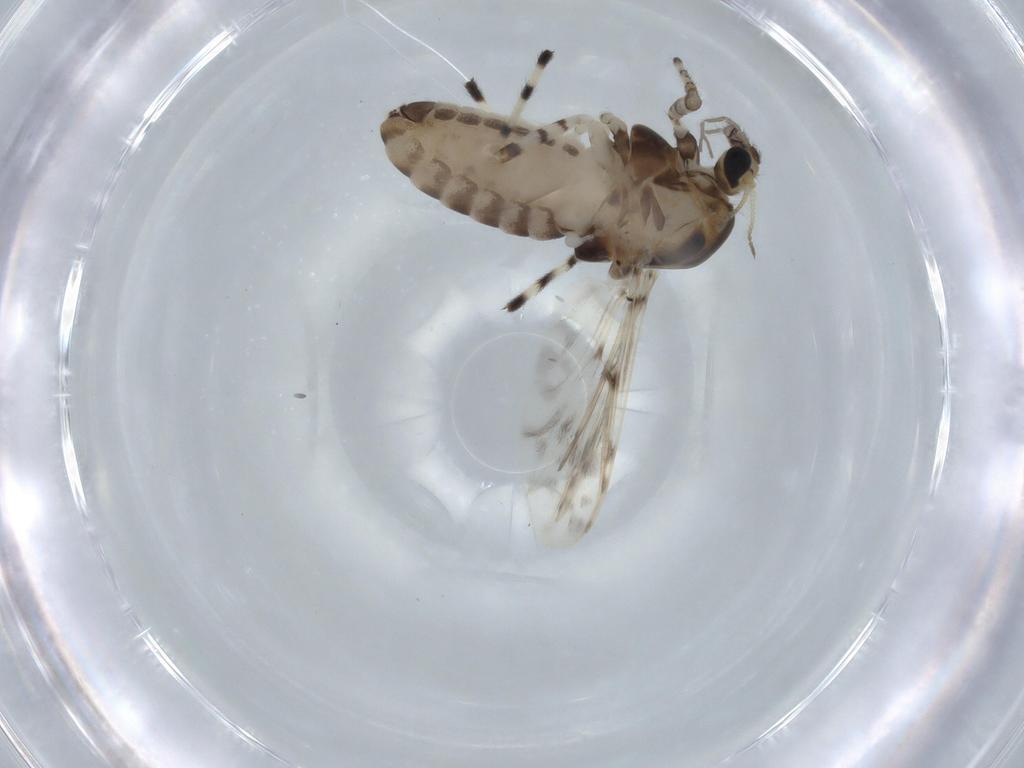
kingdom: Animalia
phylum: Arthropoda
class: Insecta
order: Diptera
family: Chironomidae
